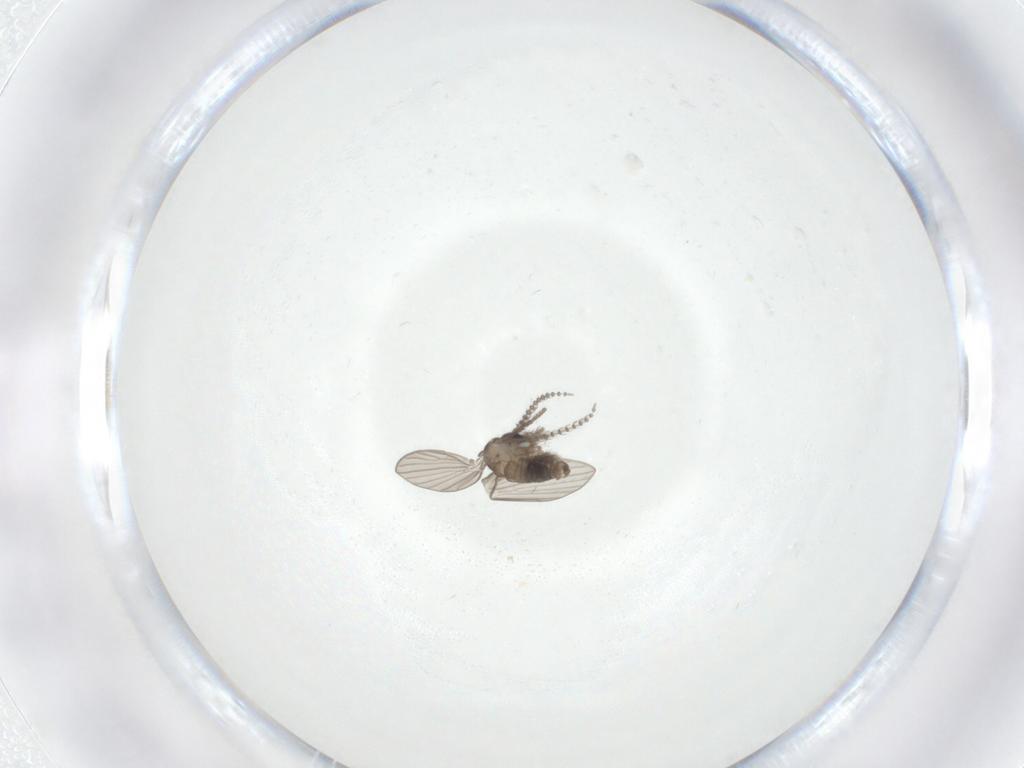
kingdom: Animalia
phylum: Arthropoda
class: Insecta
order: Diptera
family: Psychodidae
